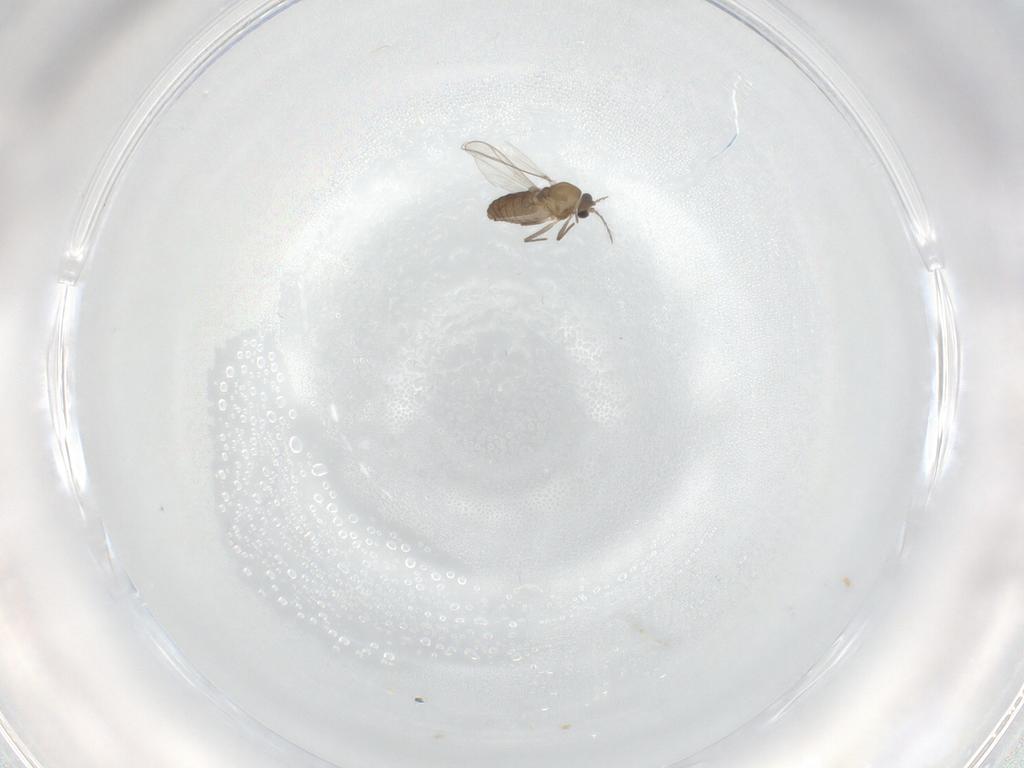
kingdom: Animalia
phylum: Arthropoda
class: Insecta
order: Diptera
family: Chironomidae
